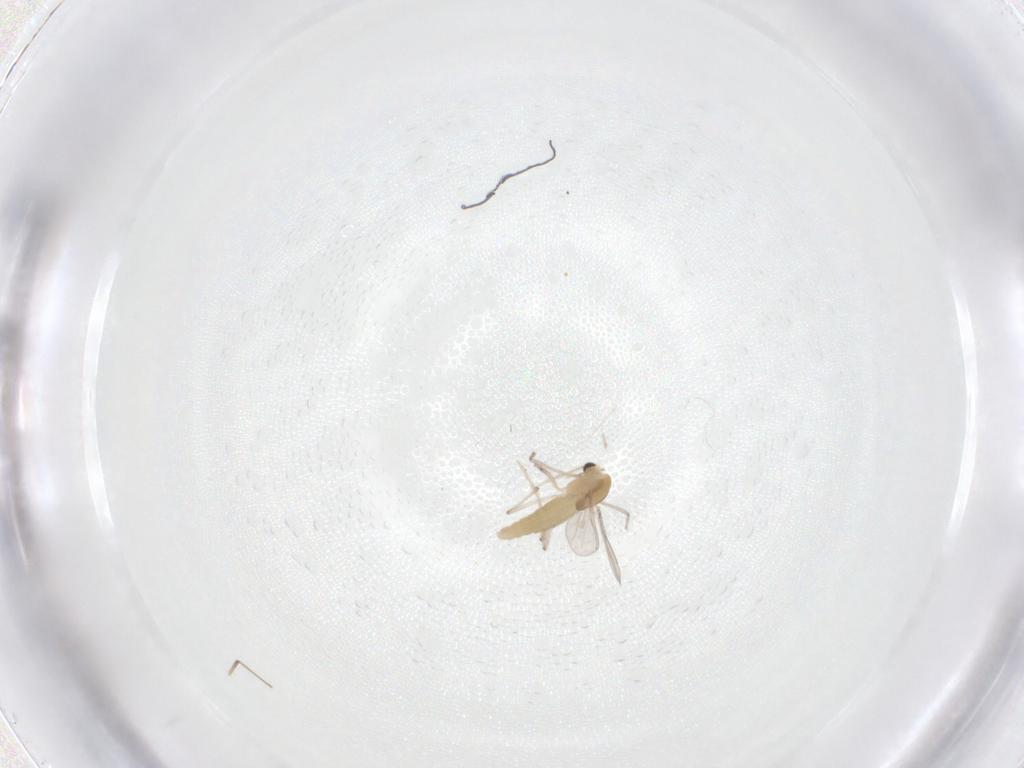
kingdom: Animalia
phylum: Arthropoda
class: Insecta
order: Diptera
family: Chironomidae
